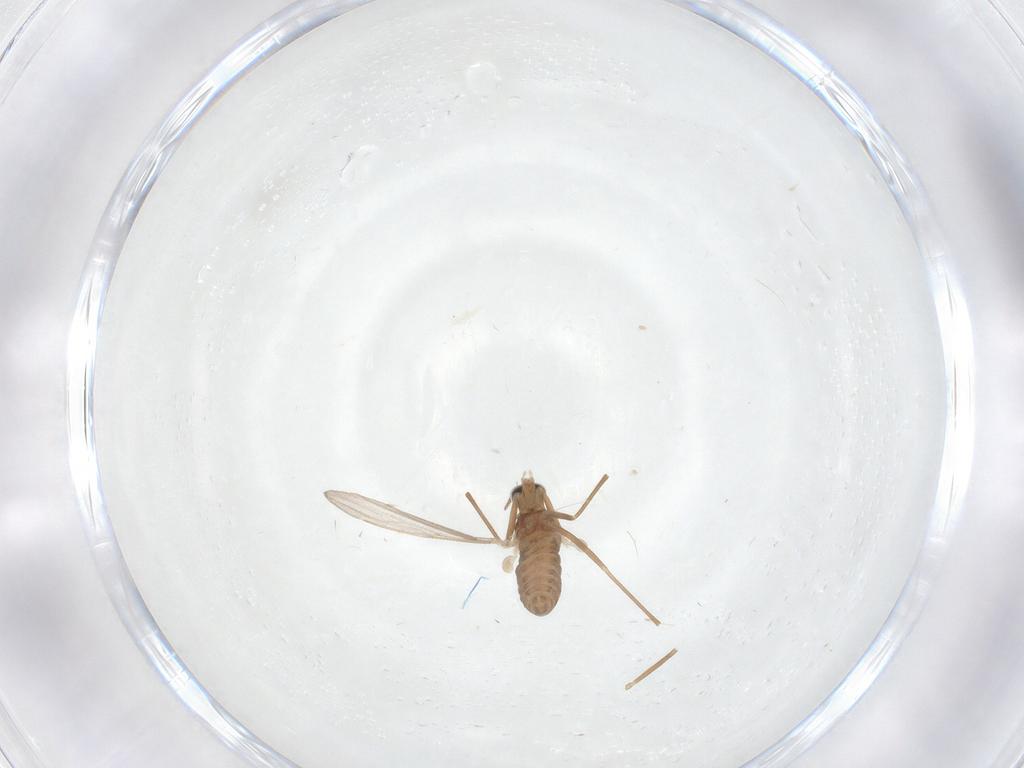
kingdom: Animalia
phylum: Arthropoda
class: Insecta
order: Diptera
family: Cecidomyiidae
